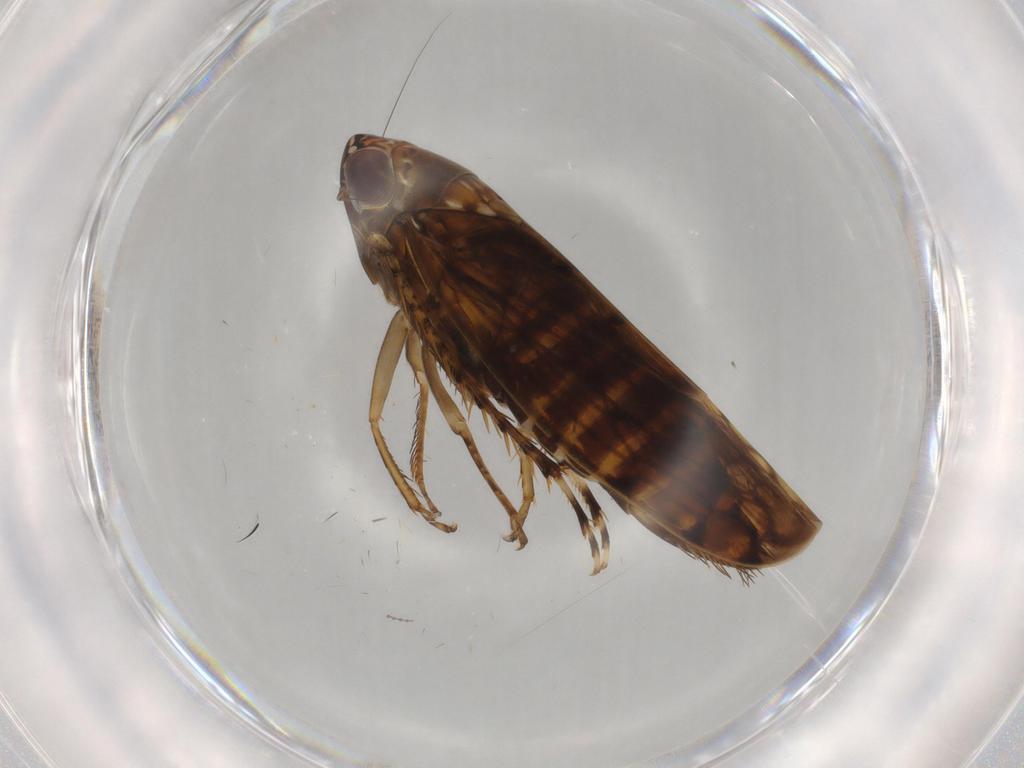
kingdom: Animalia
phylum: Arthropoda
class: Insecta
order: Hemiptera
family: Cicadellidae
